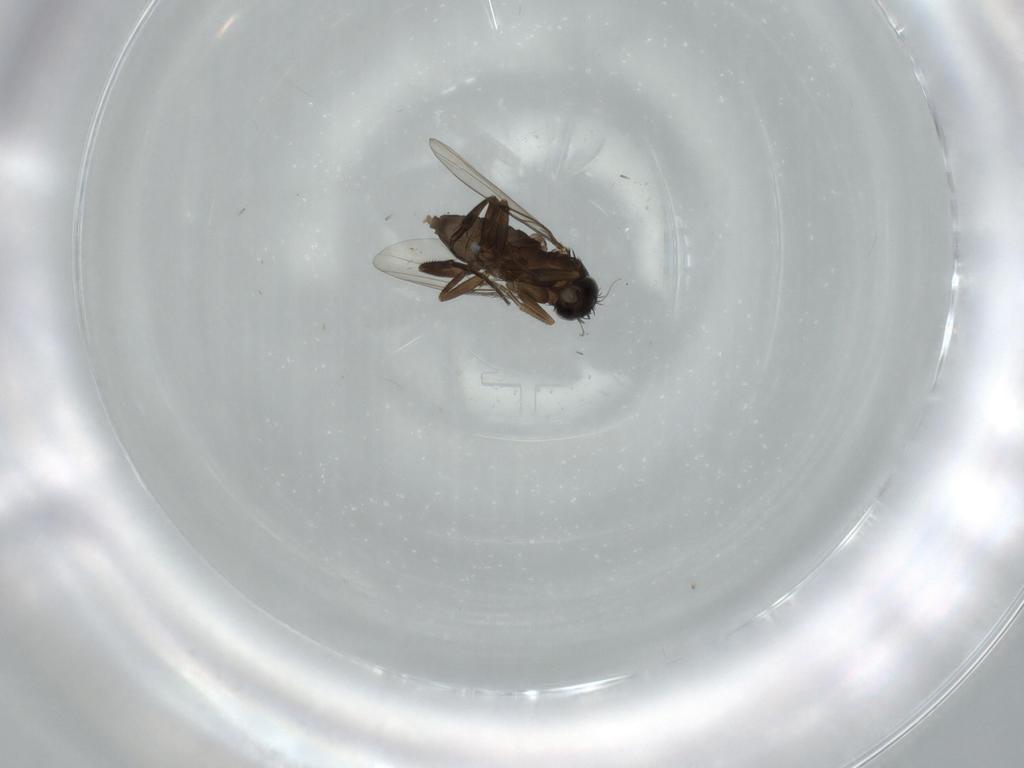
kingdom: Animalia
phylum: Arthropoda
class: Insecta
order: Diptera
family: Phoridae
